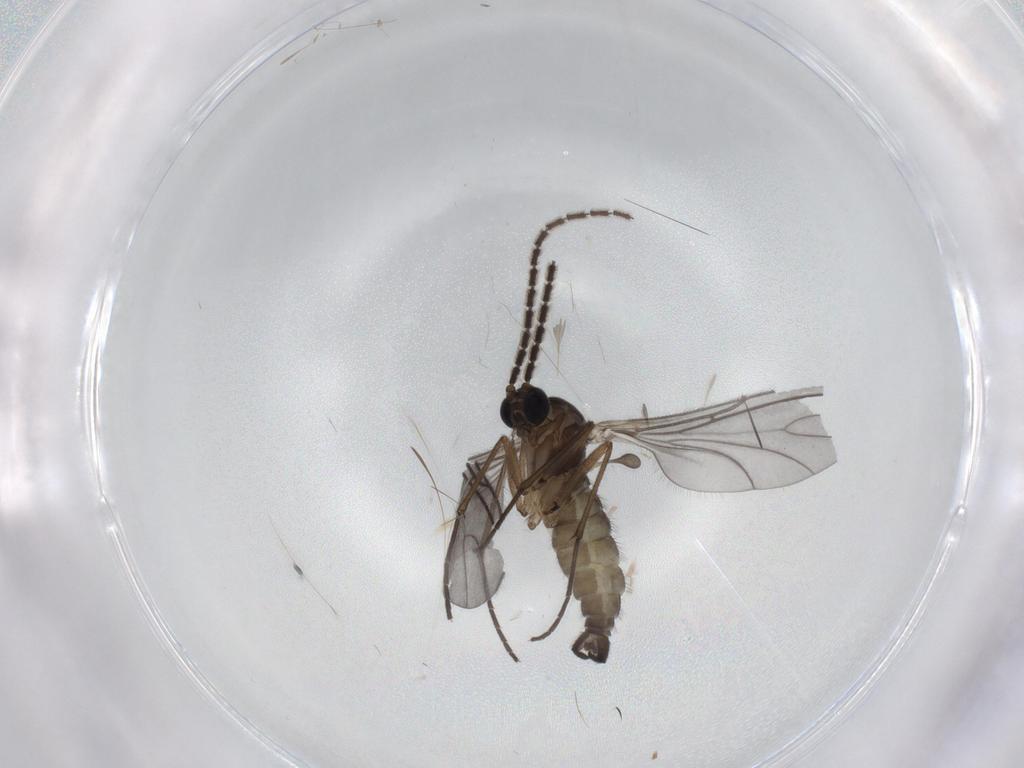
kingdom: Animalia
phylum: Arthropoda
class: Insecta
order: Diptera
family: Sciaridae
